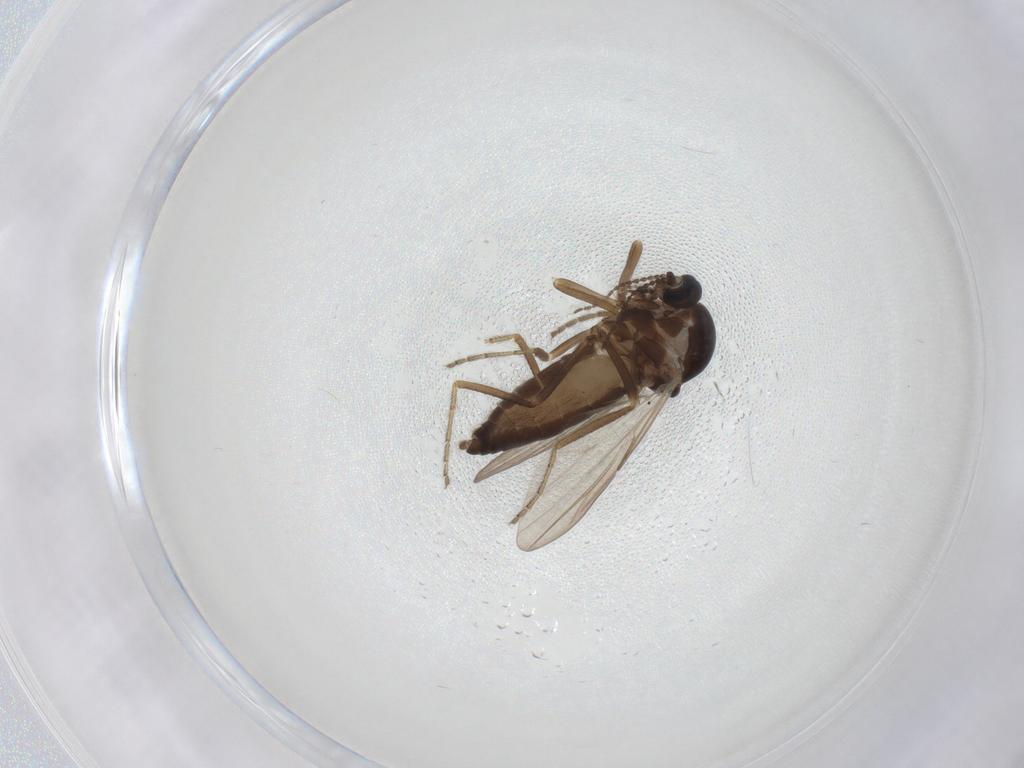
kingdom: Animalia
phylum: Arthropoda
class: Insecta
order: Diptera
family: Ceratopogonidae
